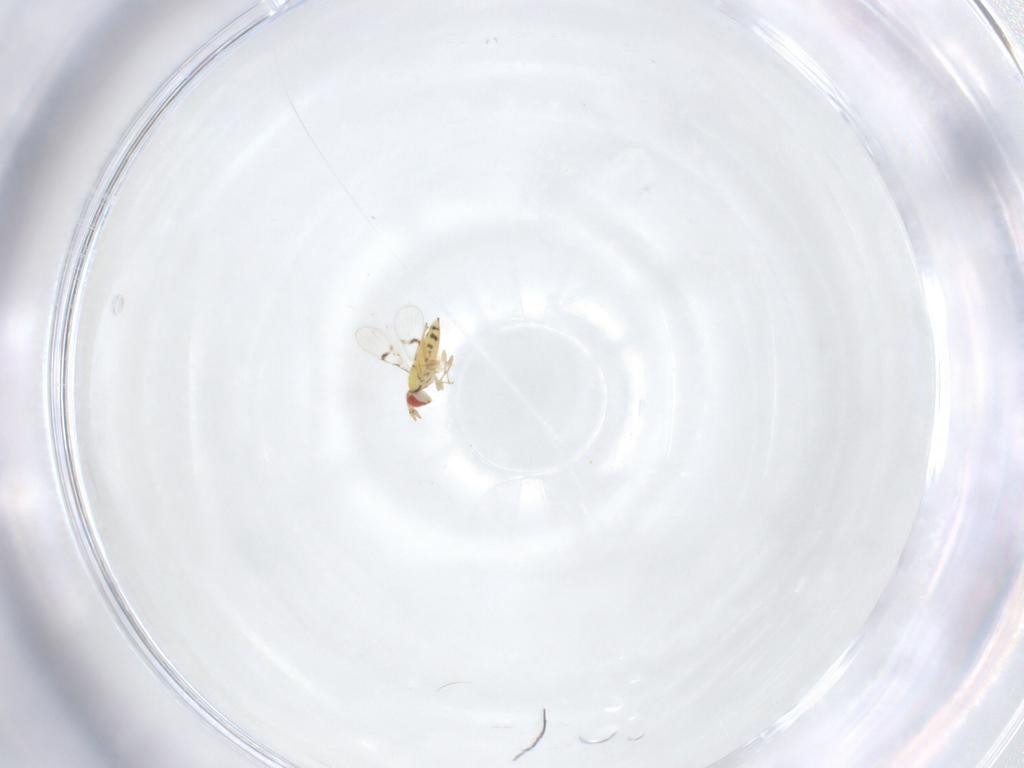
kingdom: Animalia
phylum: Arthropoda
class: Insecta
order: Hymenoptera
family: Trichogrammatidae
